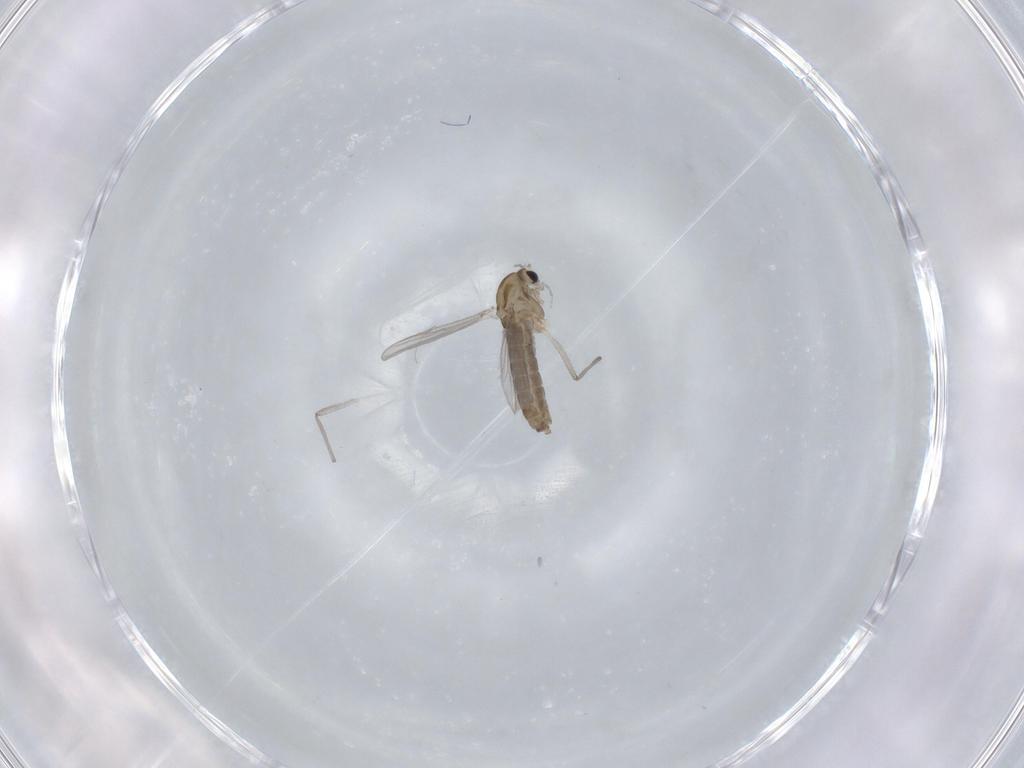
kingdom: Animalia
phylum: Arthropoda
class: Insecta
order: Diptera
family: Chironomidae
